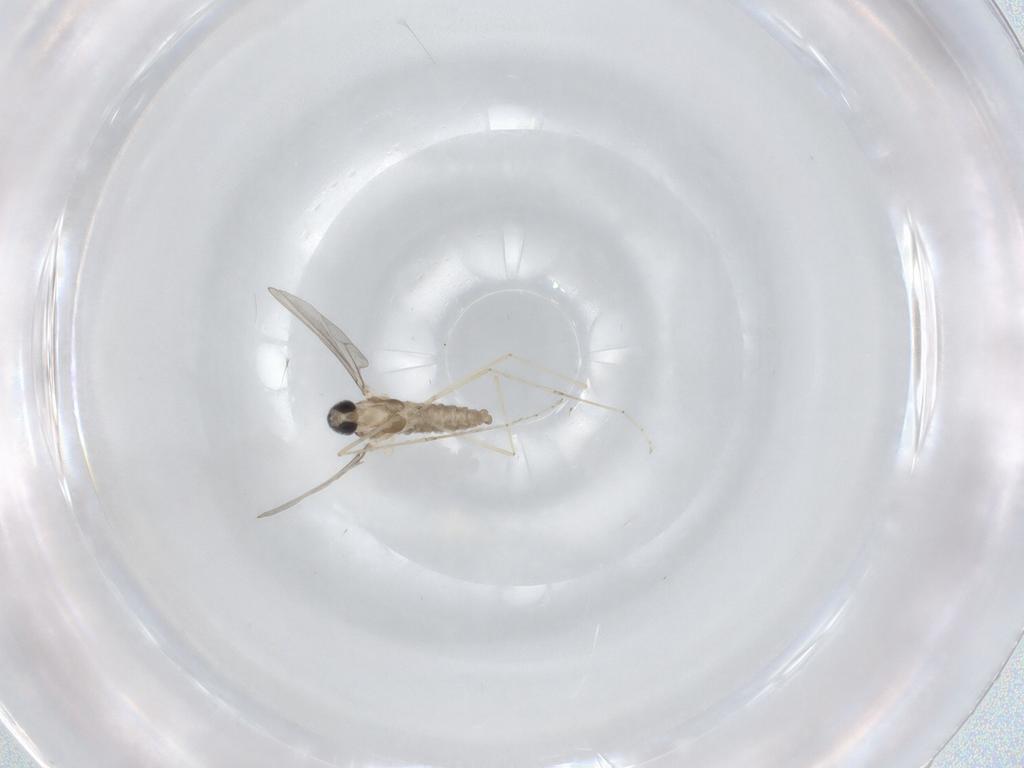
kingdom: Animalia
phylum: Arthropoda
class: Insecta
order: Diptera
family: Cecidomyiidae
